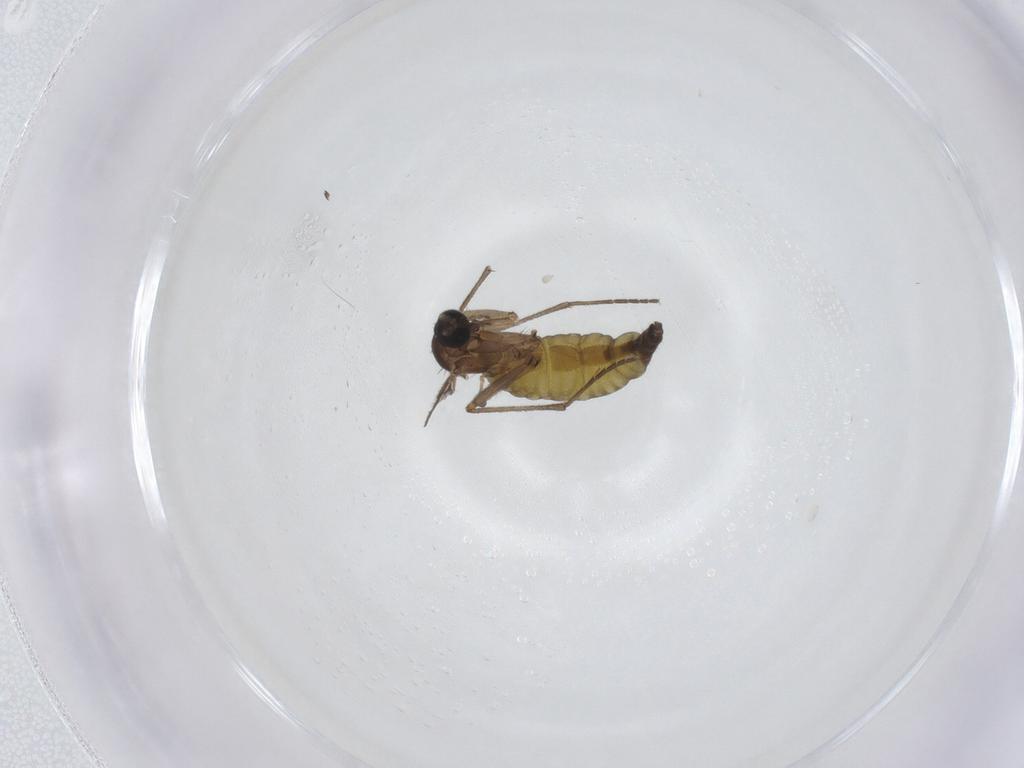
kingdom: Animalia
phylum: Arthropoda
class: Insecta
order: Diptera
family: Sciaridae
